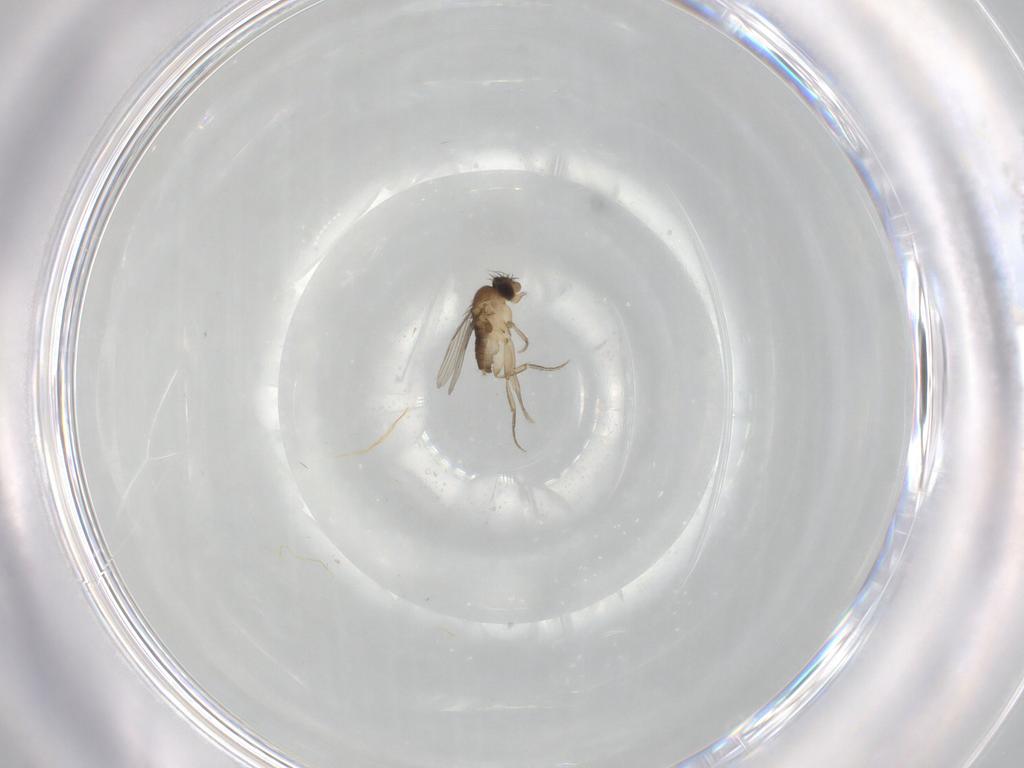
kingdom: Animalia
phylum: Arthropoda
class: Insecta
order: Diptera
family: Phoridae
